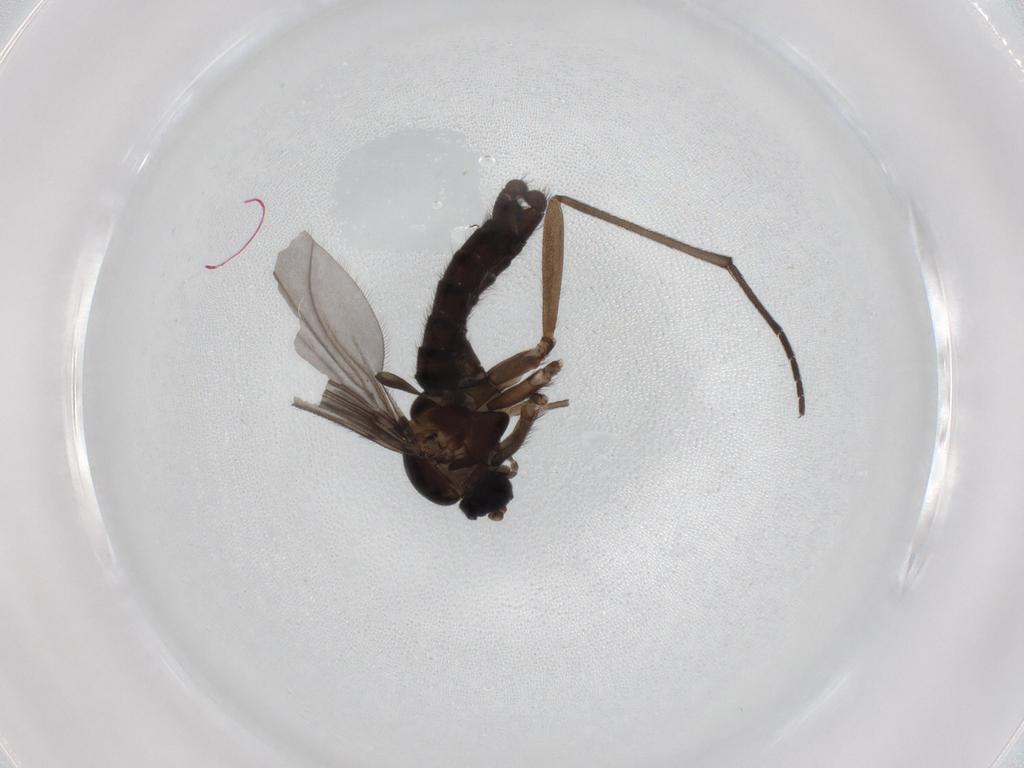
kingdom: Animalia
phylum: Arthropoda
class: Insecta
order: Diptera
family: Sciaridae
